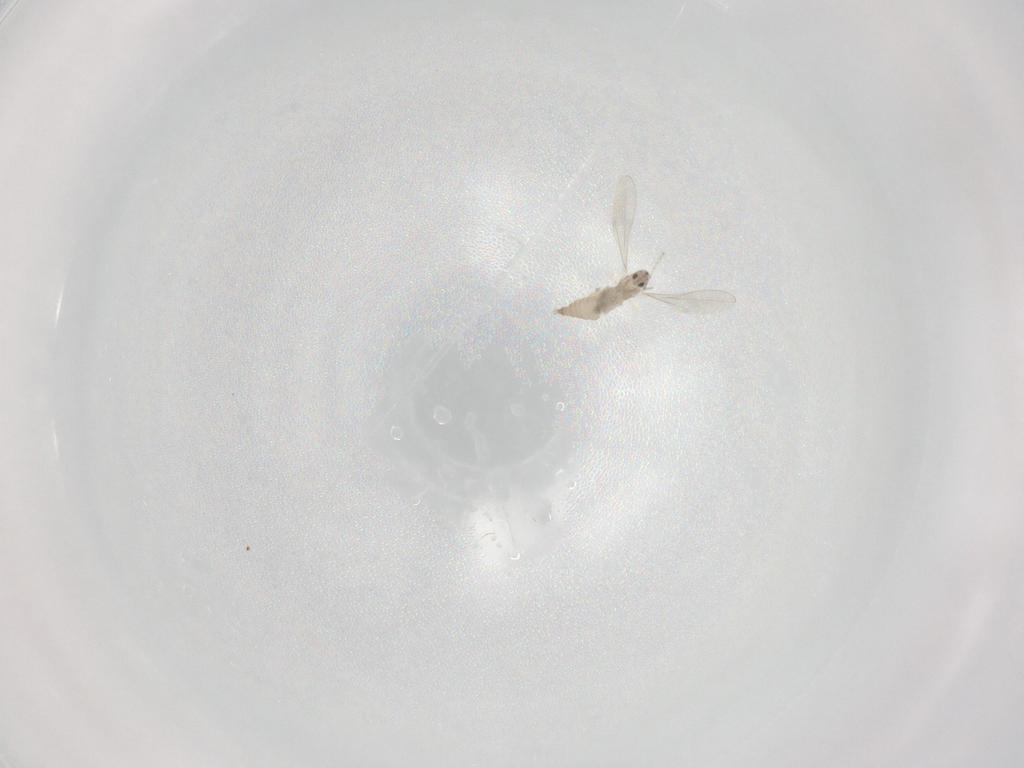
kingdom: Animalia
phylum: Arthropoda
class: Insecta
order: Diptera
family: Cecidomyiidae
